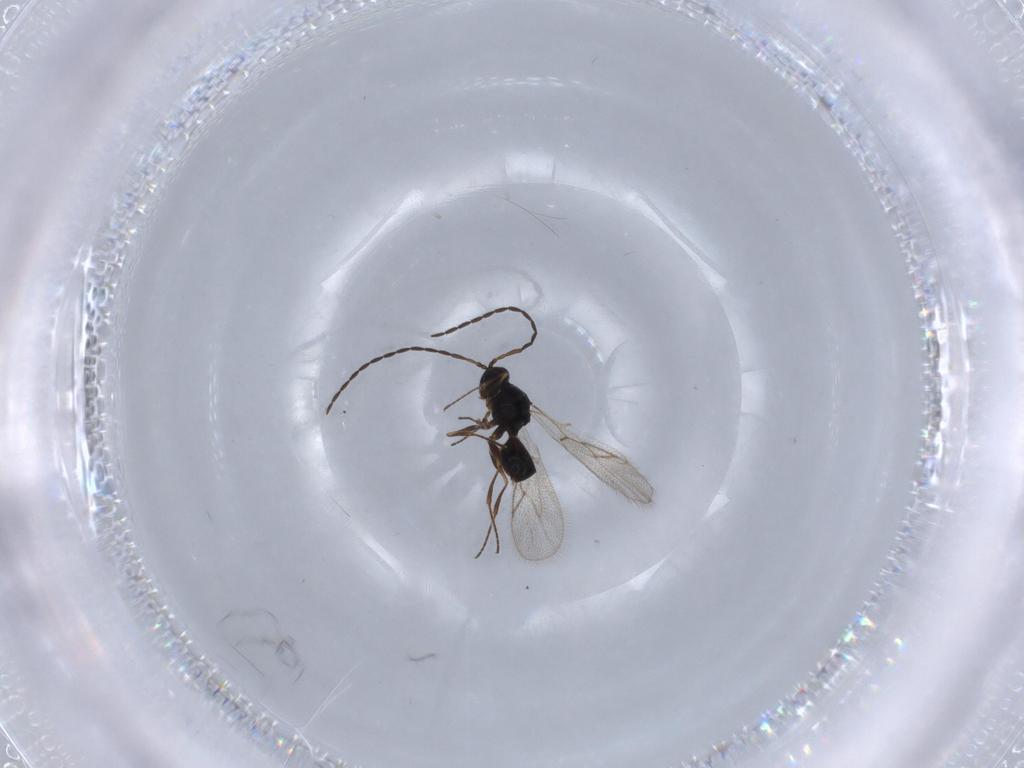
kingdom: Animalia
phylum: Arthropoda
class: Insecta
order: Hymenoptera
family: Figitidae
